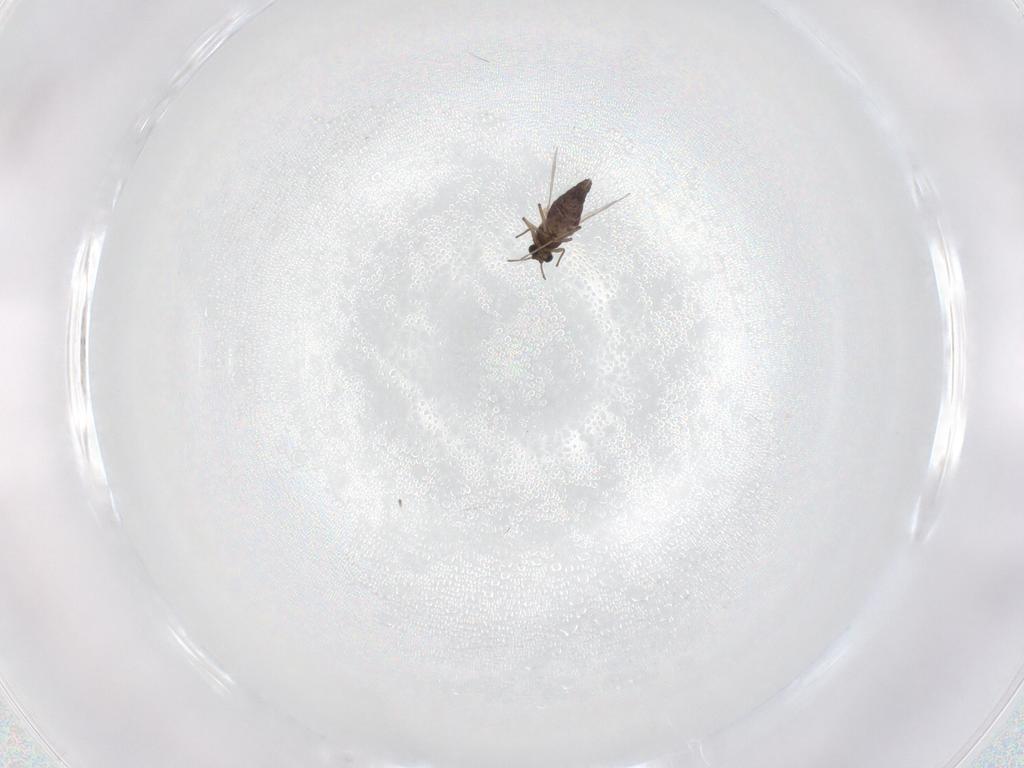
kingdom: Animalia
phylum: Arthropoda
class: Insecta
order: Diptera
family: Chironomidae
